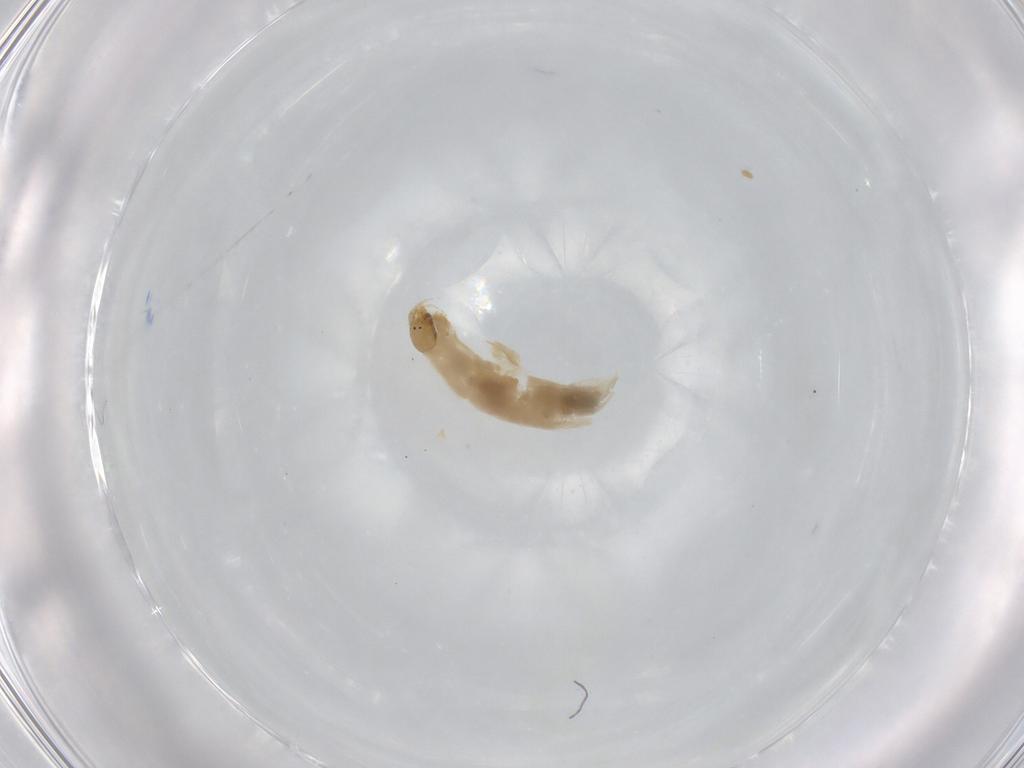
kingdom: Animalia
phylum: Arthropoda
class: Insecta
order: Diptera
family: Chironomidae
